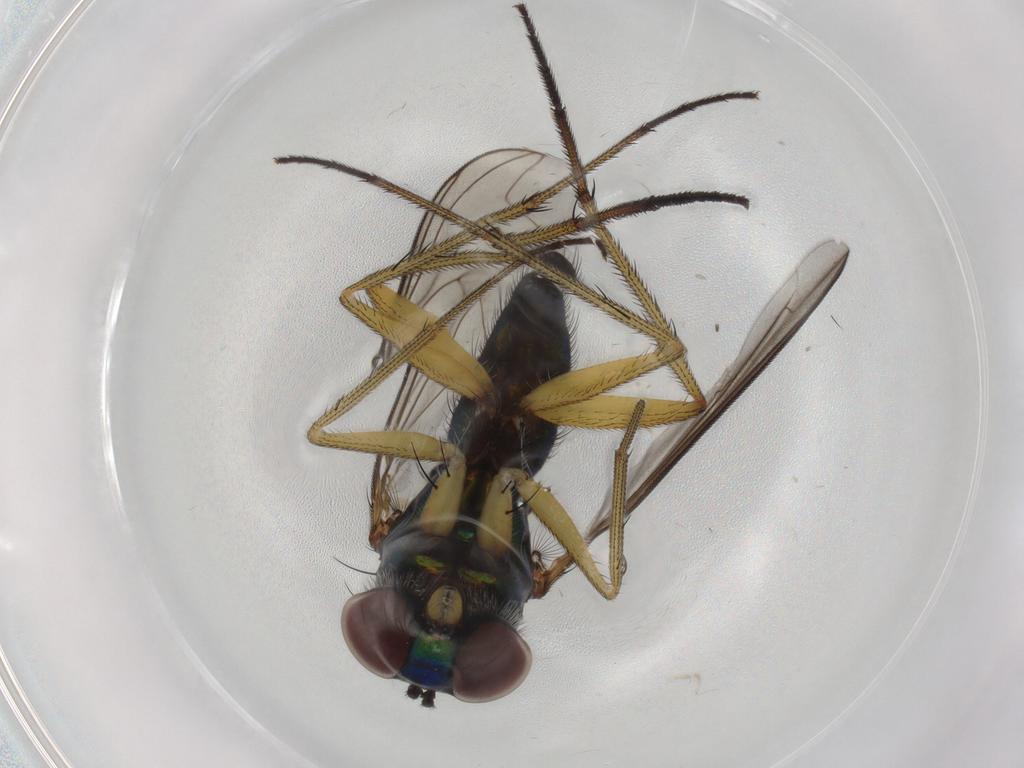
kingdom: Animalia
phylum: Arthropoda
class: Insecta
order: Diptera
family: Dolichopodidae
